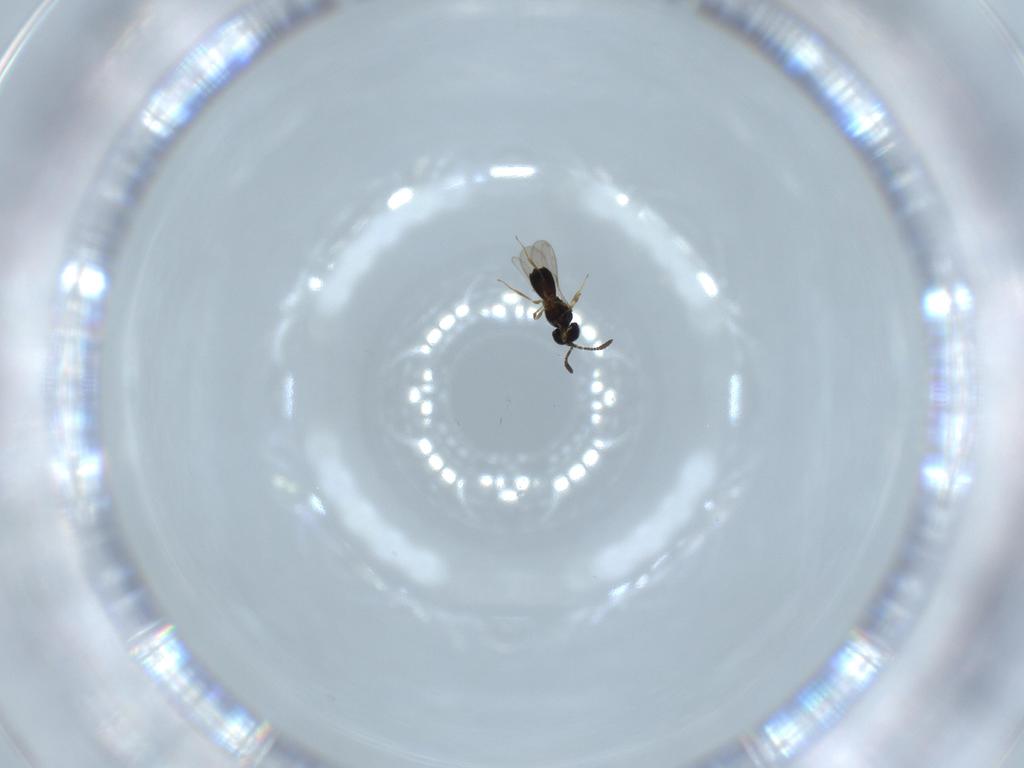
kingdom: Animalia
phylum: Arthropoda
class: Insecta
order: Hymenoptera
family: Scelionidae
